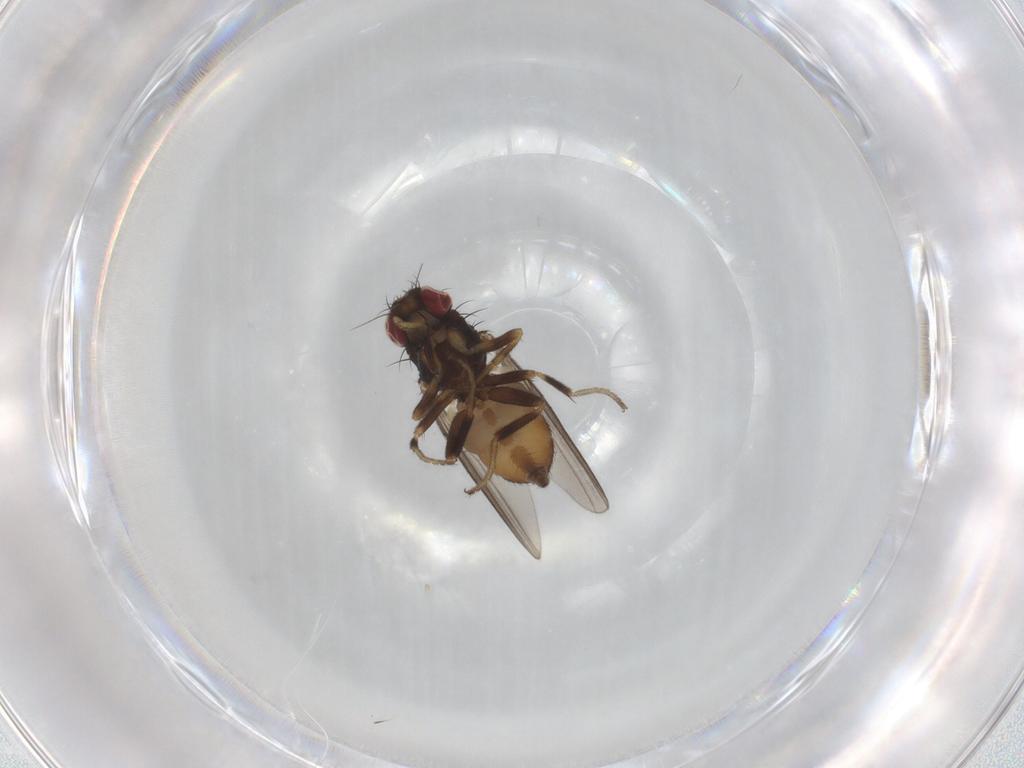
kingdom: Animalia
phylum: Arthropoda
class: Insecta
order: Diptera
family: Milichiidae
